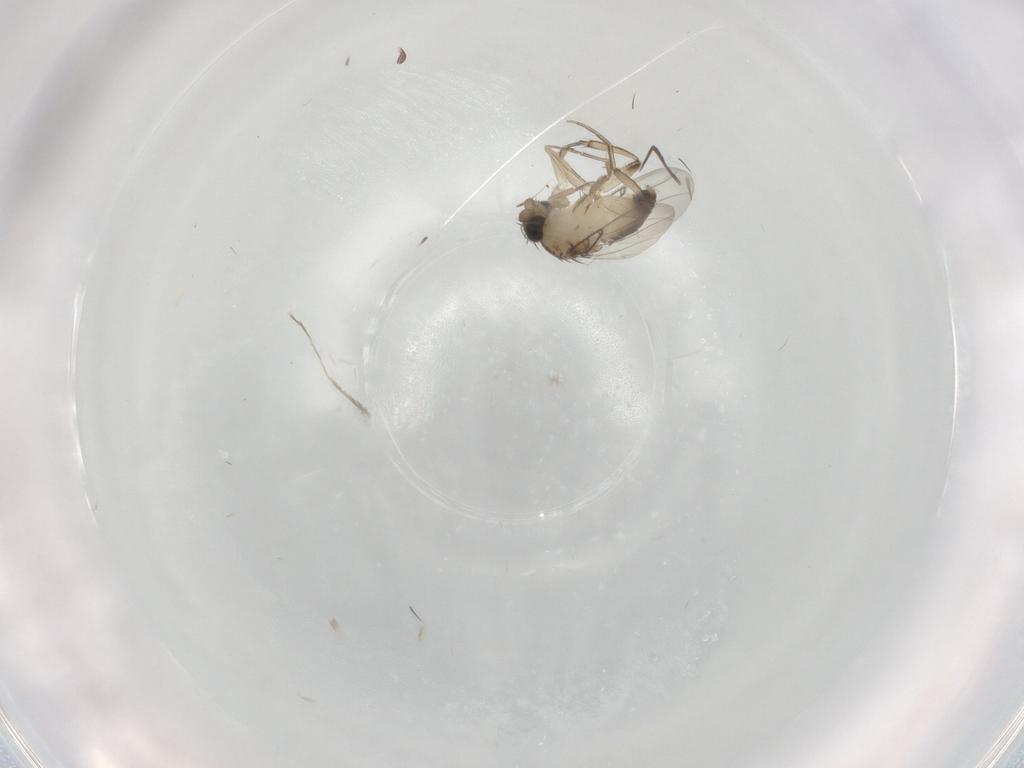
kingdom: Animalia
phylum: Arthropoda
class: Insecta
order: Diptera
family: Phoridae
